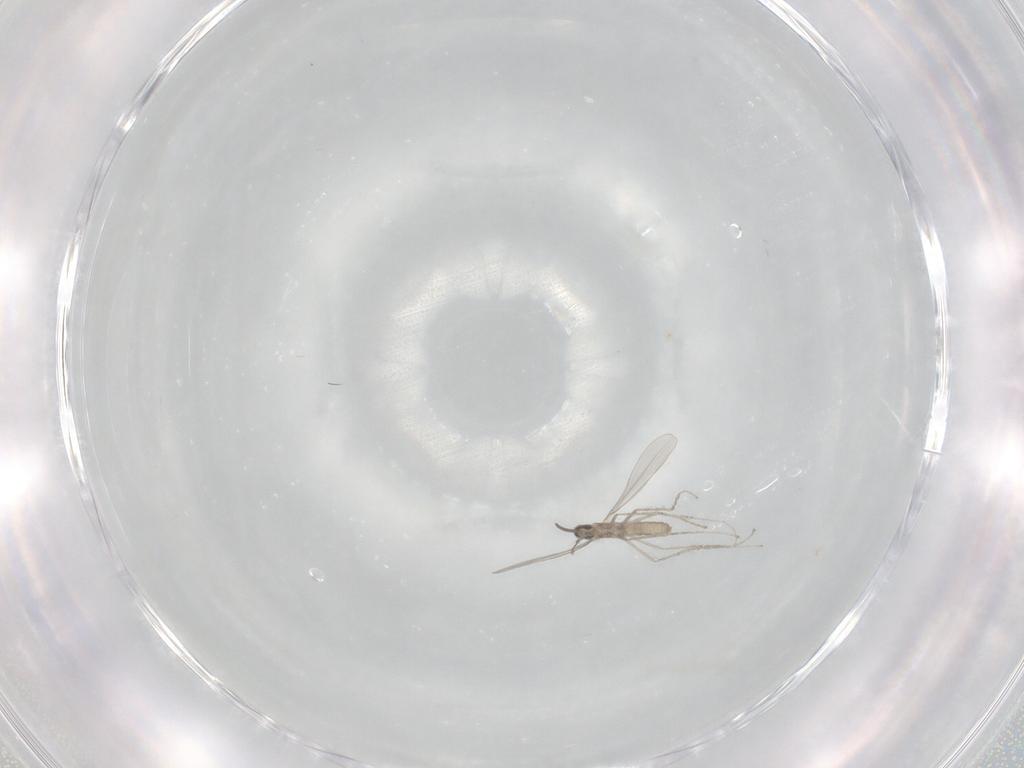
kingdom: Animalia
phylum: Arthropoda
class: Insecta
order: Diptera
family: Cecidomyiidae
